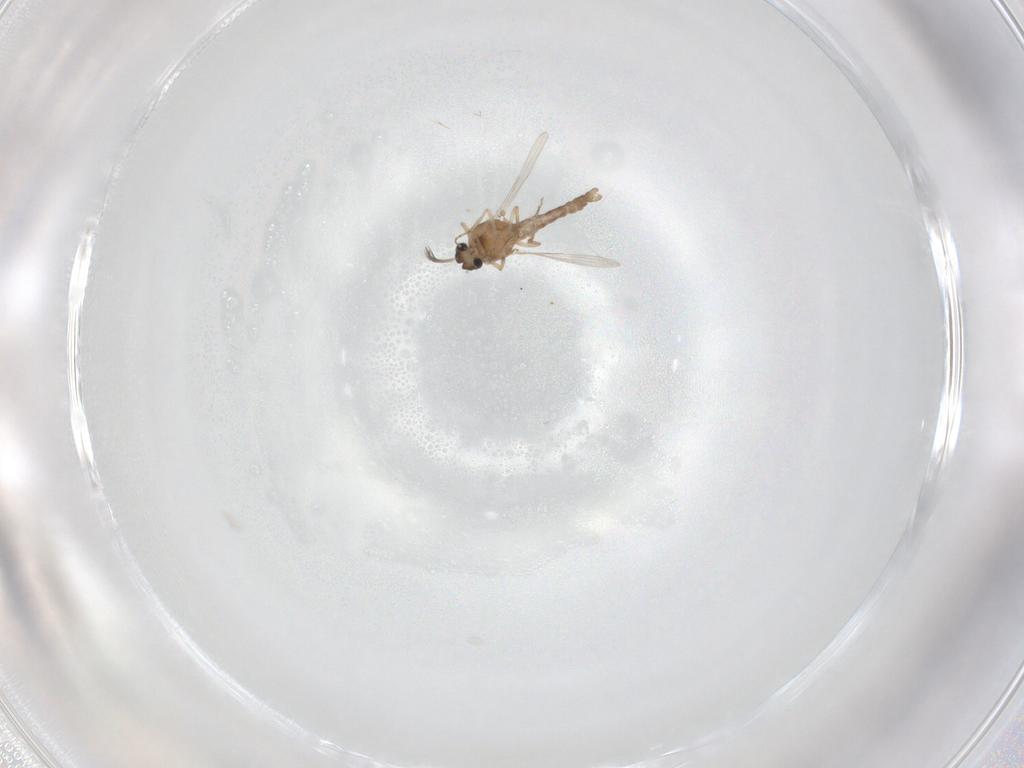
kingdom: Animalia
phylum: Arthropoda
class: Insecta
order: Diptera
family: Ceratopogonidae
